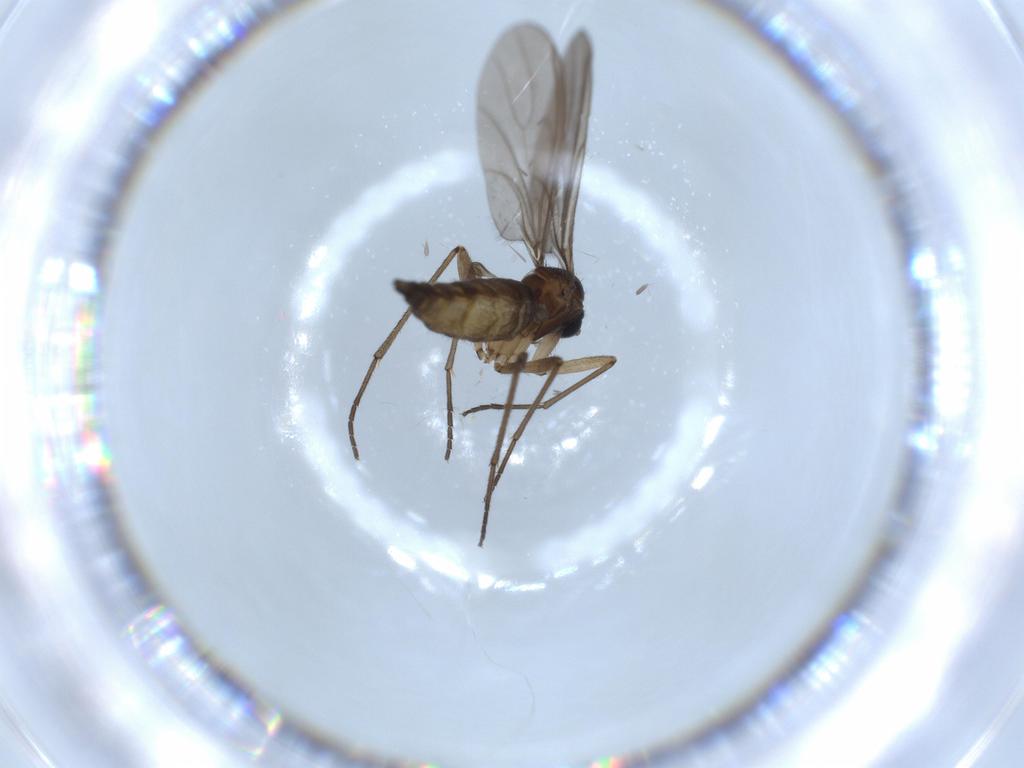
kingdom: Animalia
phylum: Arthropoda
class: Insecta
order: Diptera
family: Sciaridae
